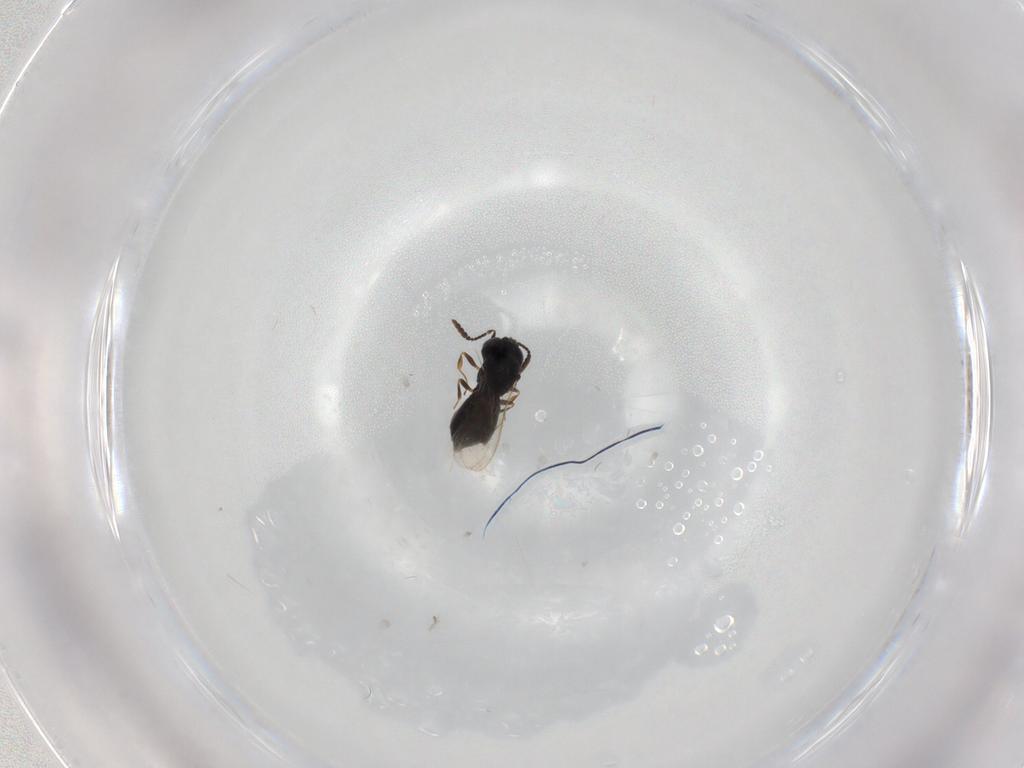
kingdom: Animalia
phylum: Arthropoda
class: Insecta
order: Hymenoptera
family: Scelionidae
